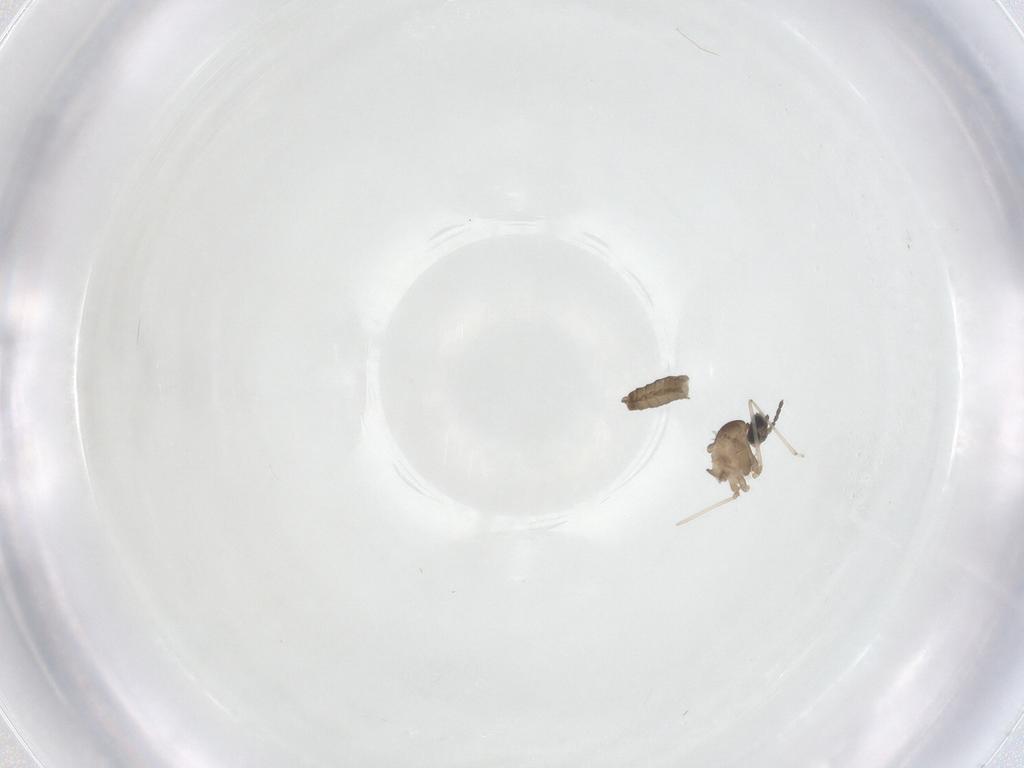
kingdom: Animalia
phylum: Arthropoda
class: Insecta
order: Diptera
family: Cecidomyiidae
